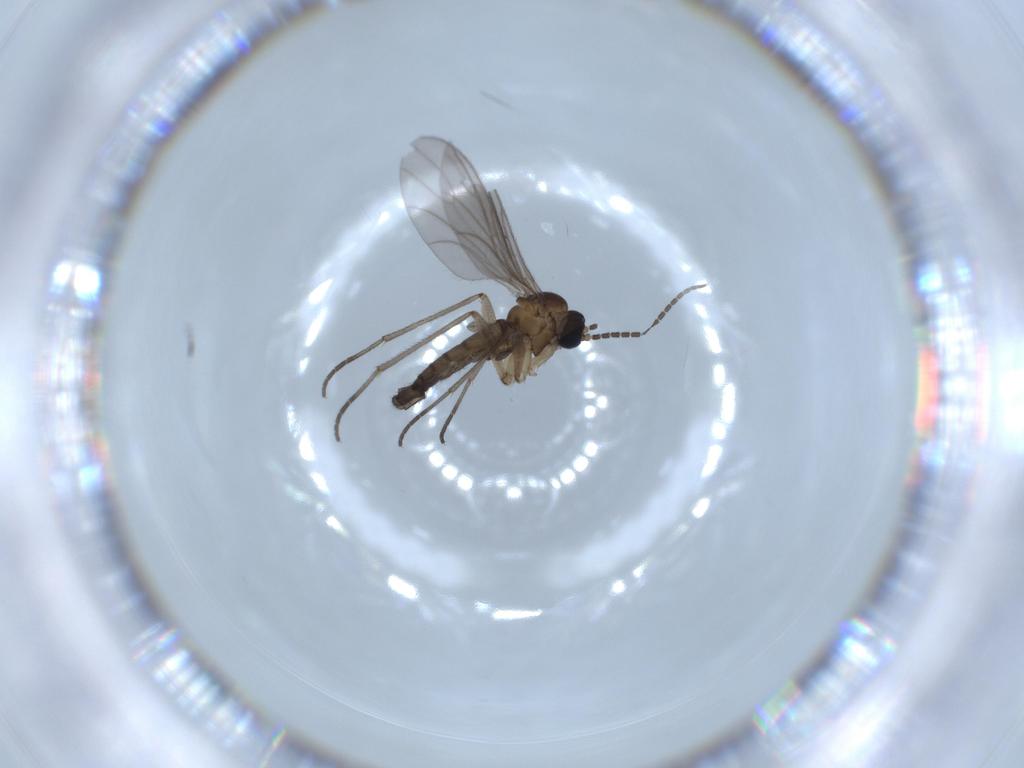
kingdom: Animalia
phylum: Arthropoda
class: Insecta
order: Diptera
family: Sciaridae
